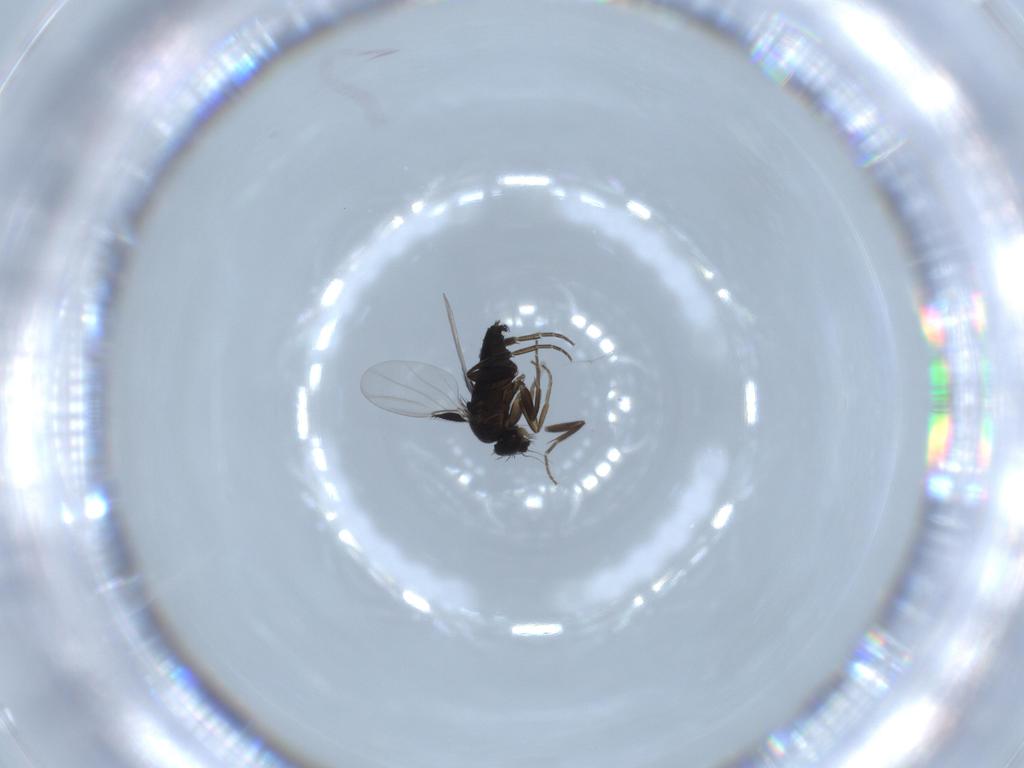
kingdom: Animalia
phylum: Arthropoda
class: Insecta
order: Diptera
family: Phoridae
